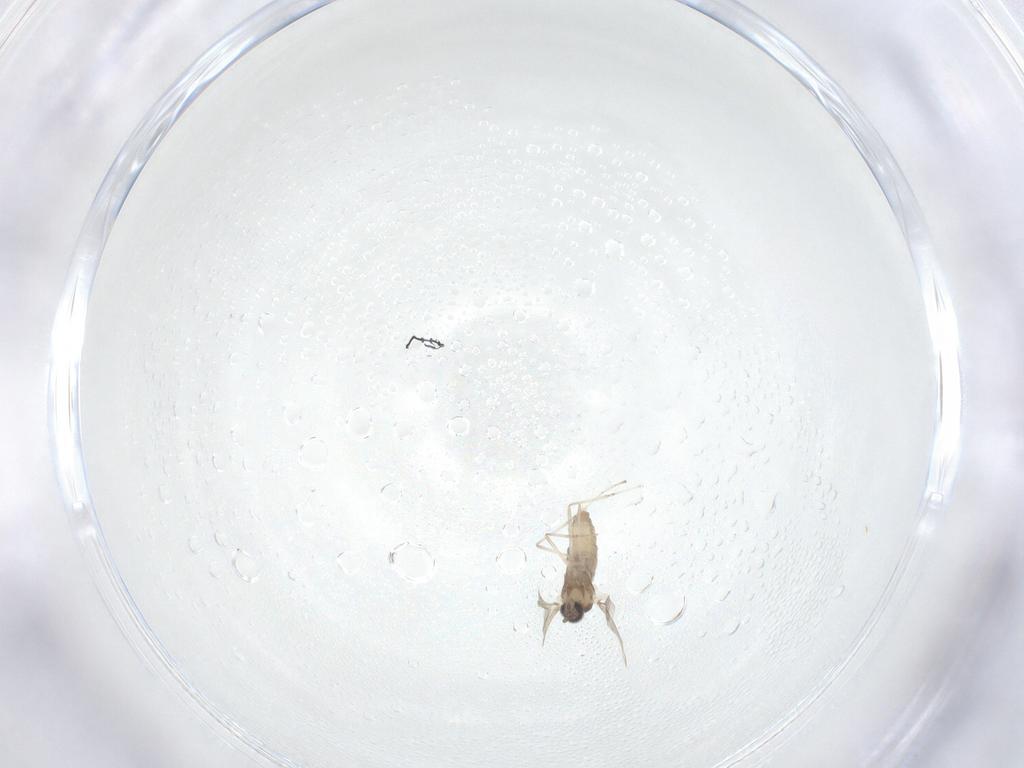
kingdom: Animalia
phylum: Arthropoda
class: Insecta
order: Diptera
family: Cecidomyiidae
